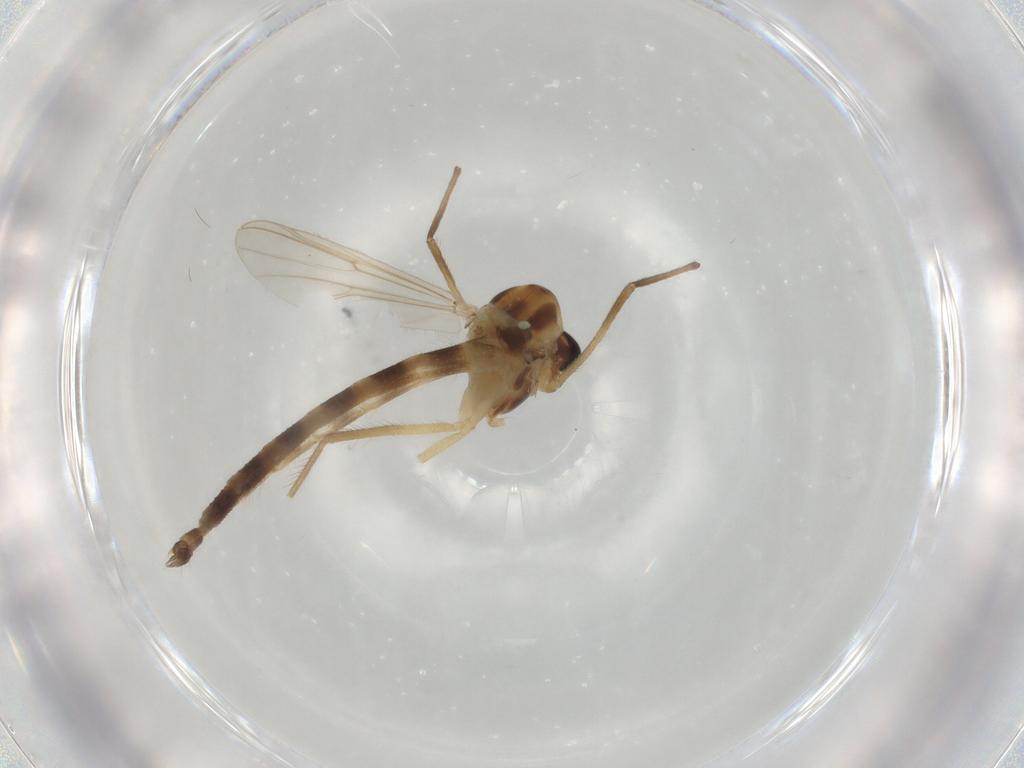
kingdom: Animalia
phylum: Arthropoda
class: Insecta
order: Diptera
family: Chironomidae
